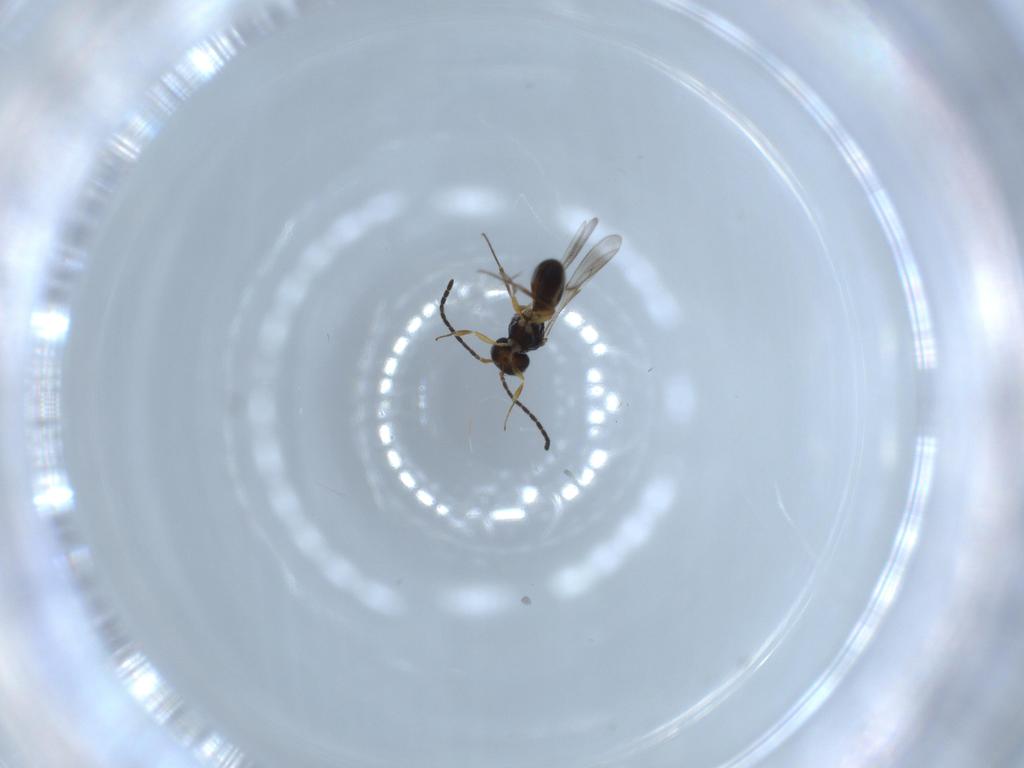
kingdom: Animalia
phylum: Arthropoda
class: Insecta
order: Hymenoptera
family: Scelionidae
